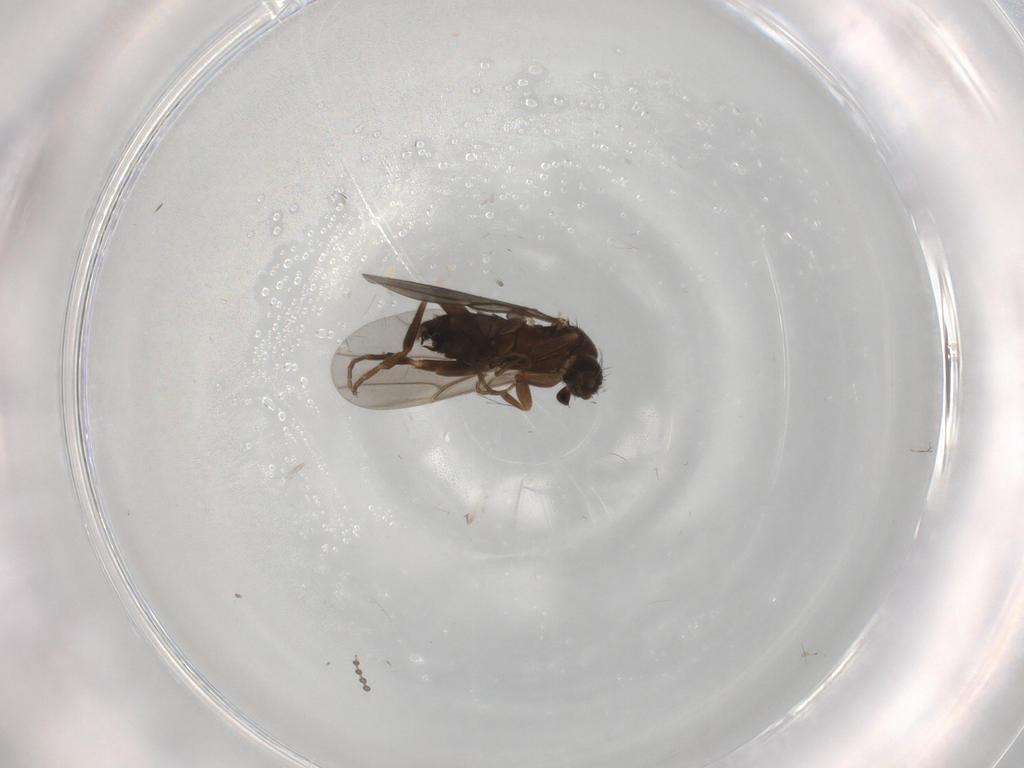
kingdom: Animalia
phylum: Arthropoda
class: Insecta
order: Diptera
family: Phoridae
